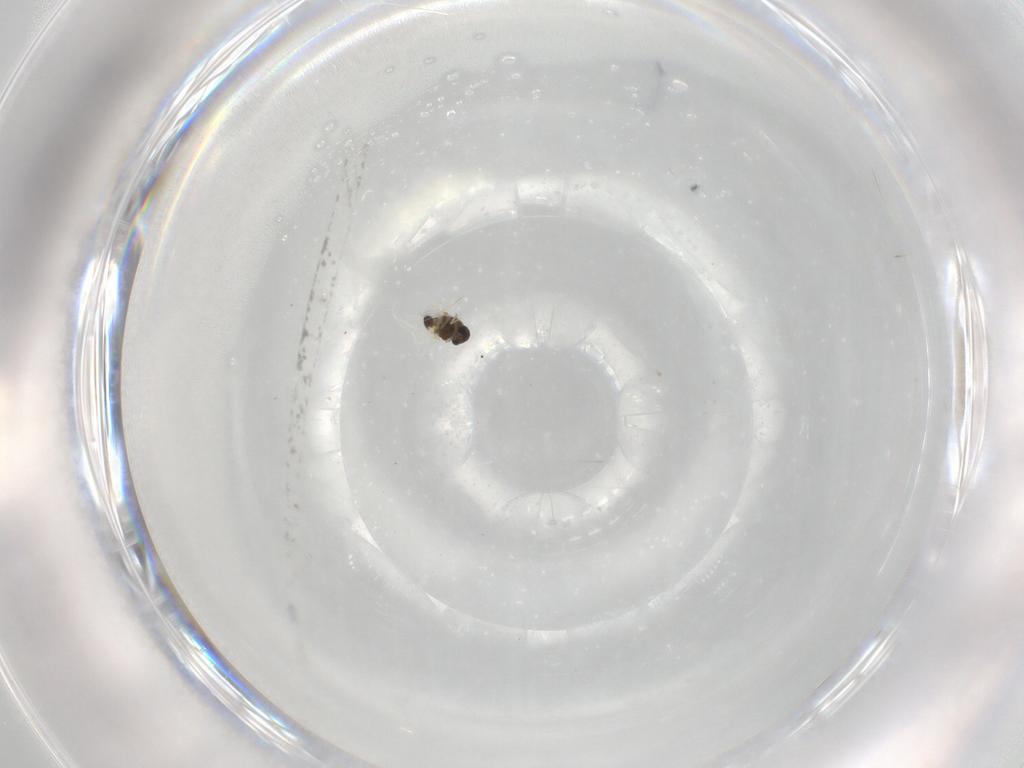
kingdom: Animalia
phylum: Arthropoda
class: Insecta
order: Diptera
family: Chironomidae
